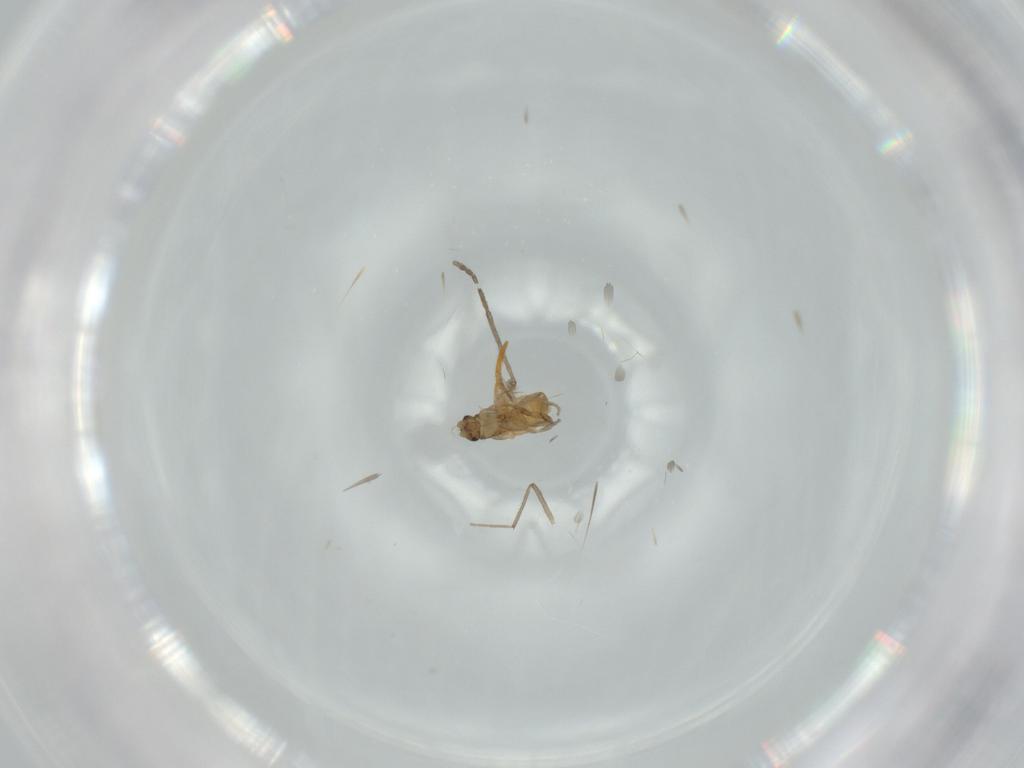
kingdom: Animalia
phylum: Arthropoda
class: Insecta
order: Diptera
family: Chironomidae
